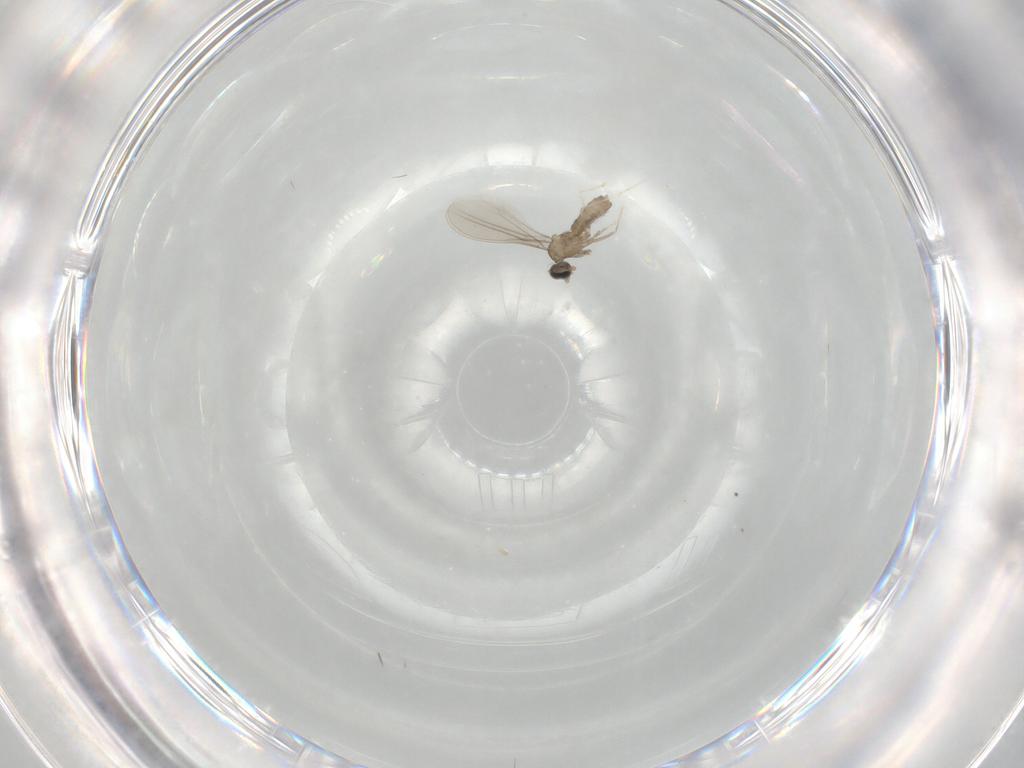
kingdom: Animalia
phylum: Arthropoda
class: Insecta
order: Diptera
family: Cecidomyiidae
